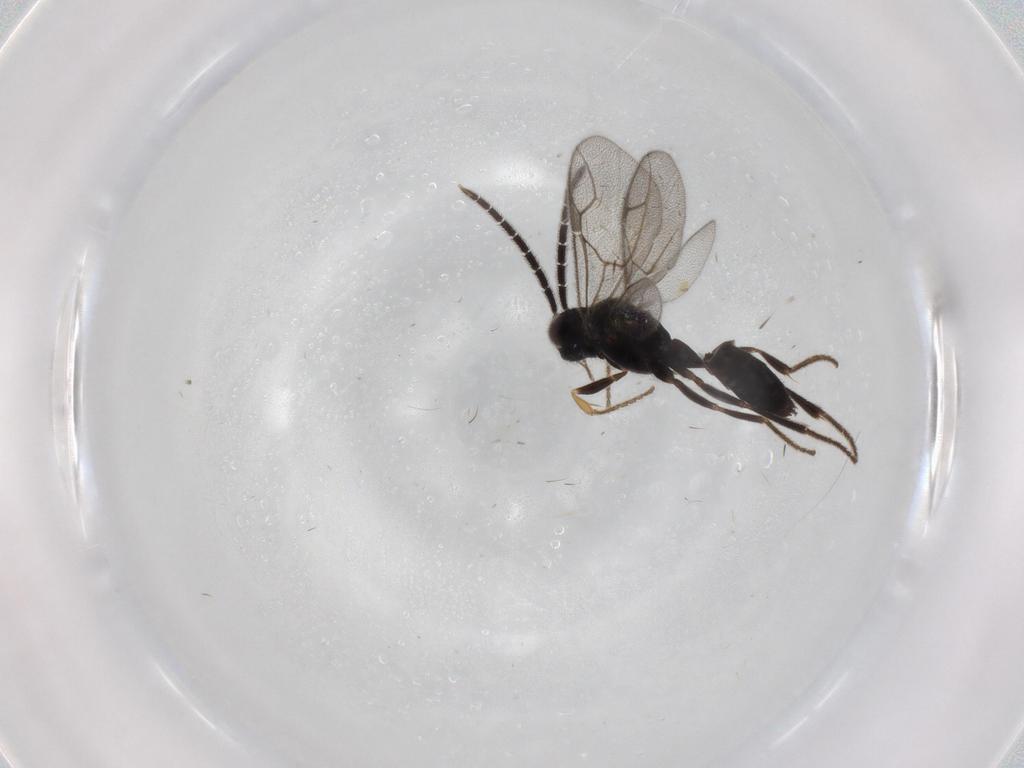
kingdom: Animalia
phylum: Arthropoda
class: Insecta
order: Hymenoptera
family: Dryinidae
